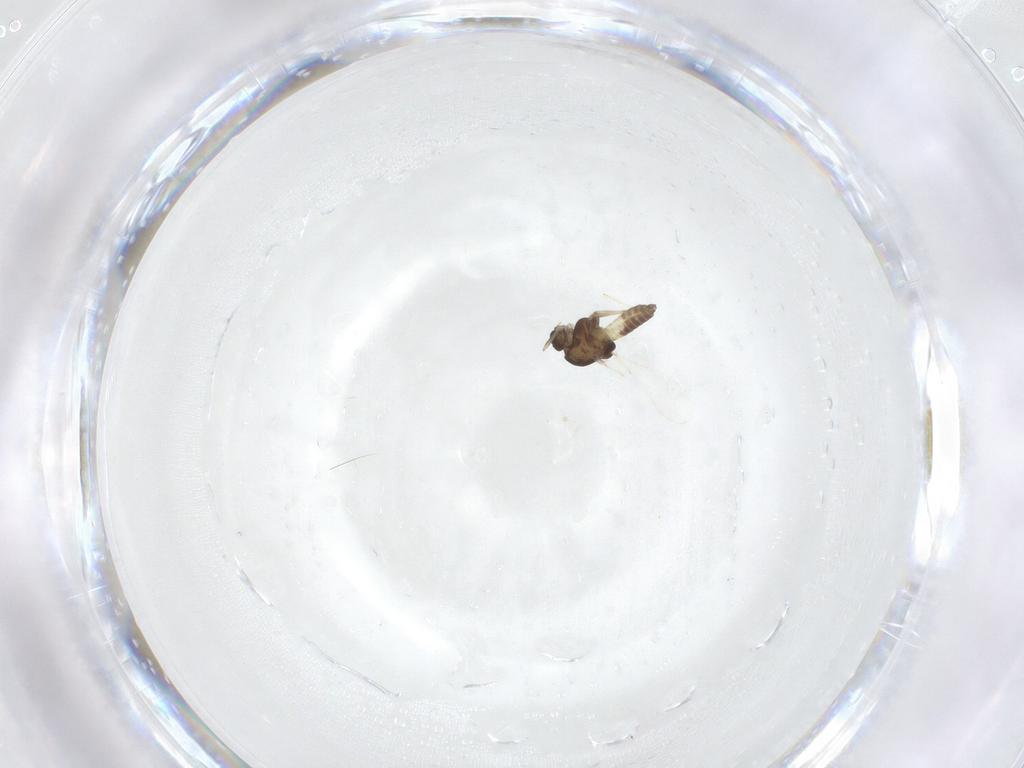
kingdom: Animalia
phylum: Arthropoda
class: Insecta
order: Diptera
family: Chironomidae
